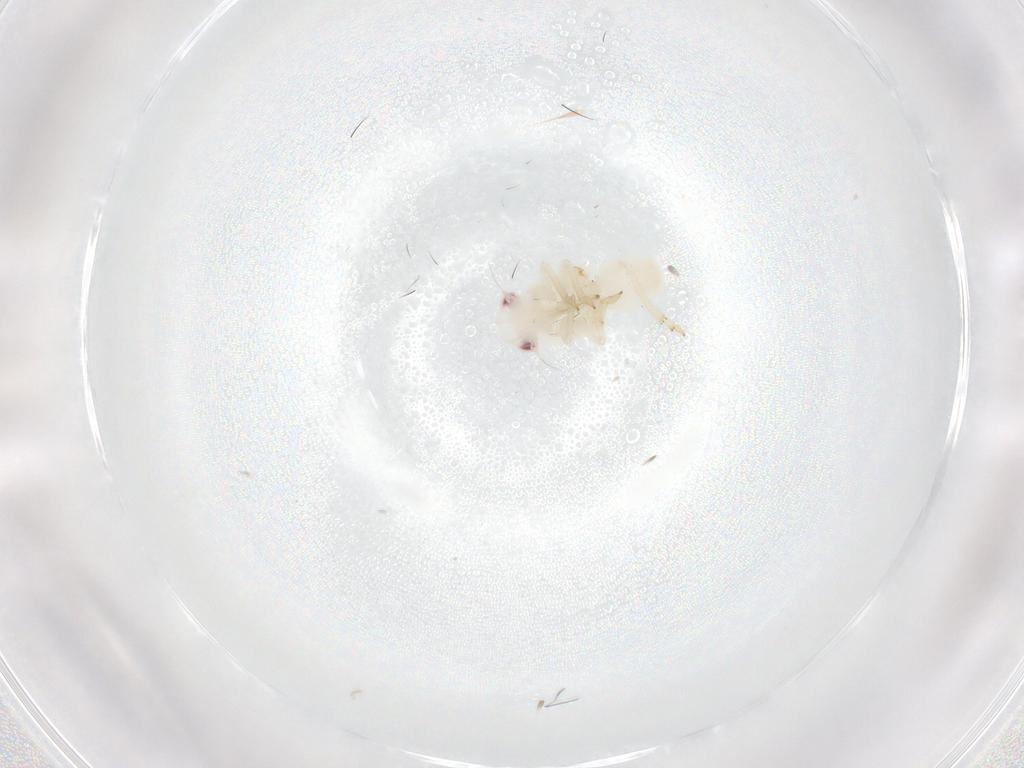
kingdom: Animalia
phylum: Arthropoda
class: Insecta
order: Hemiptera
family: Tropiduchidae
